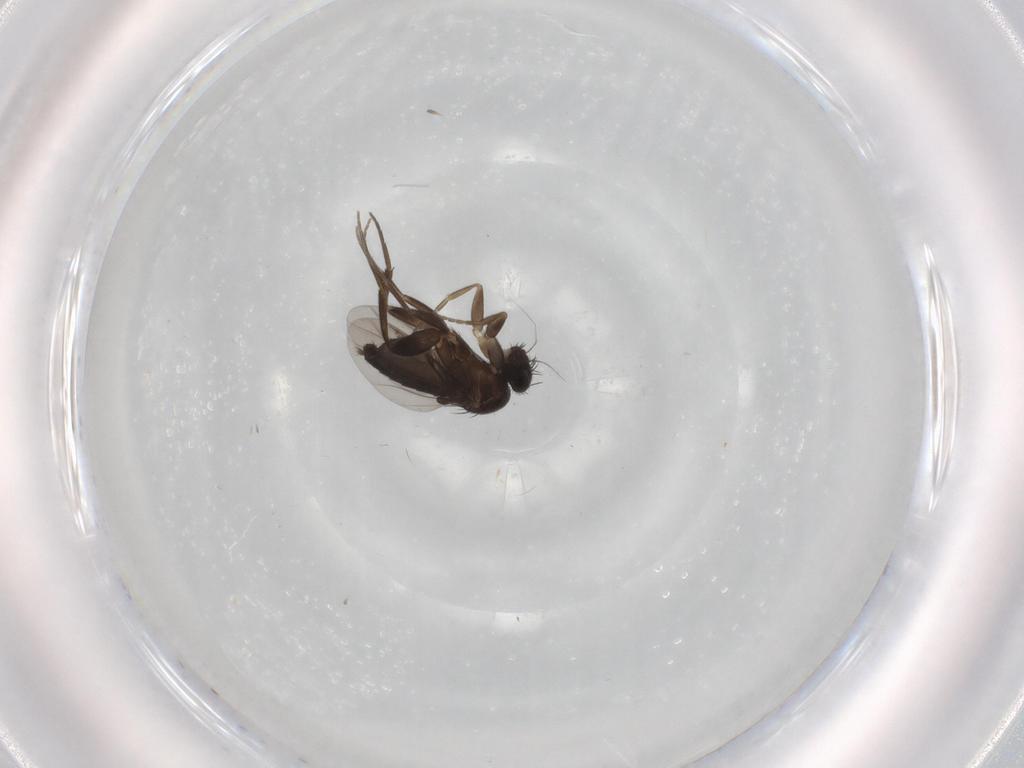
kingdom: Animalia
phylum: Arthropoda
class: Insecta
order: Diptera
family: Phoridae
